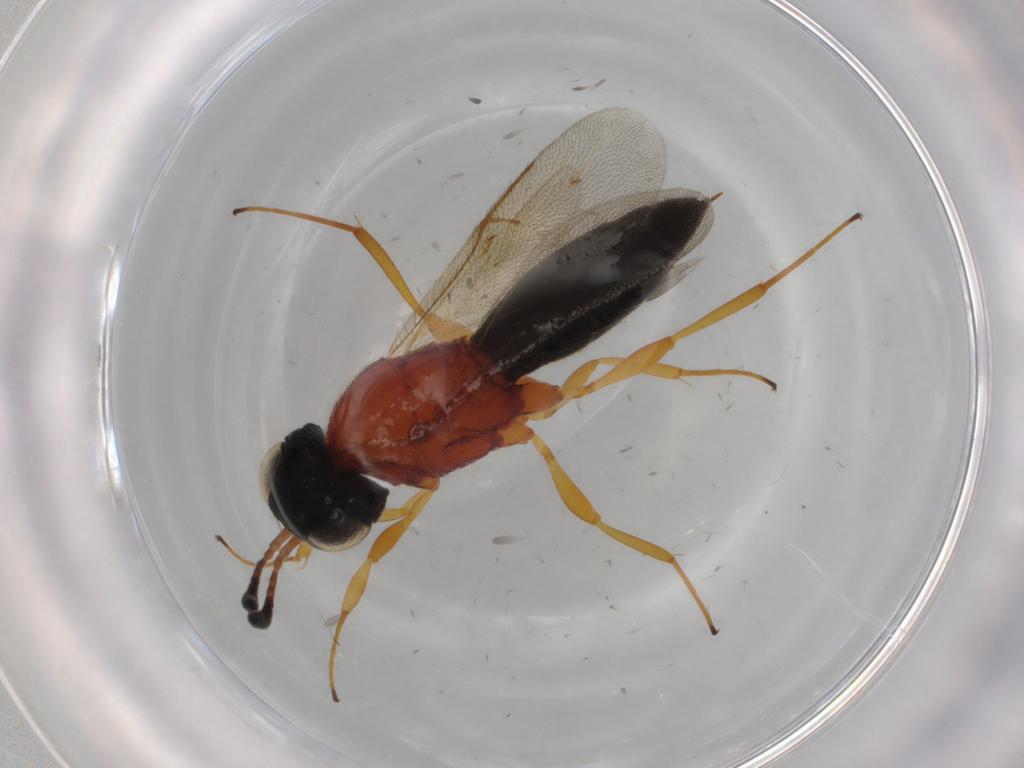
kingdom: Animalia
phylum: Arthropoda
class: Insecta
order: Hymenoptera
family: Scelionidae
